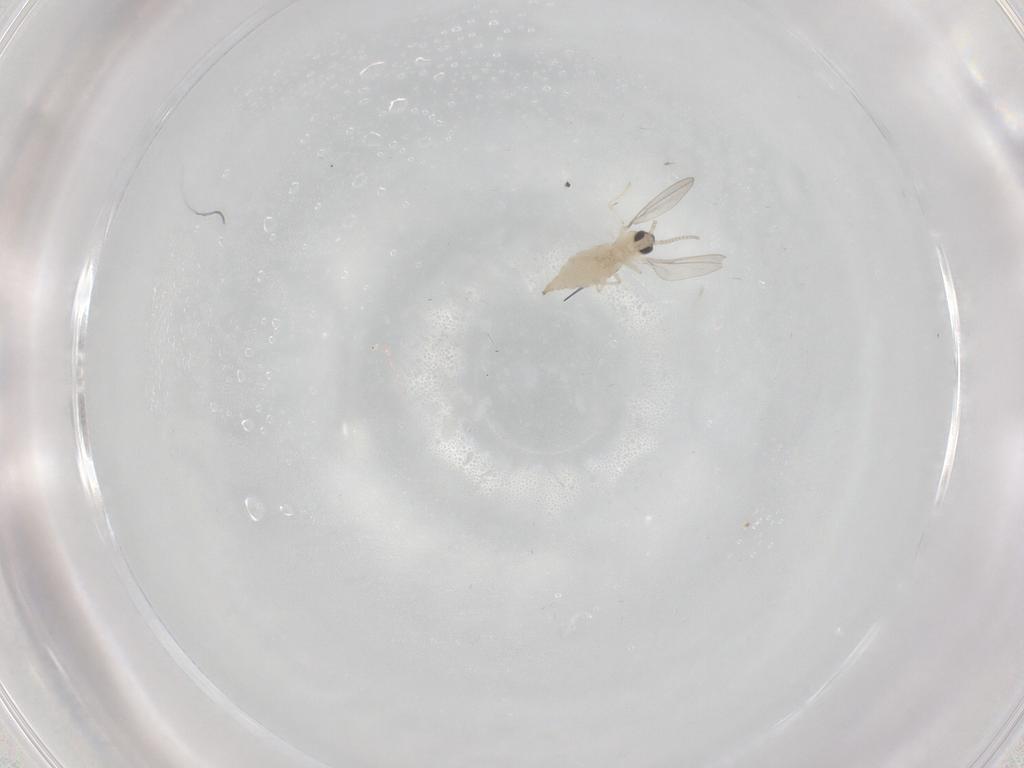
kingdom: Animalia
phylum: Arthropoda
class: Insecta
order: Diptera
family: Cecidomyiidae
